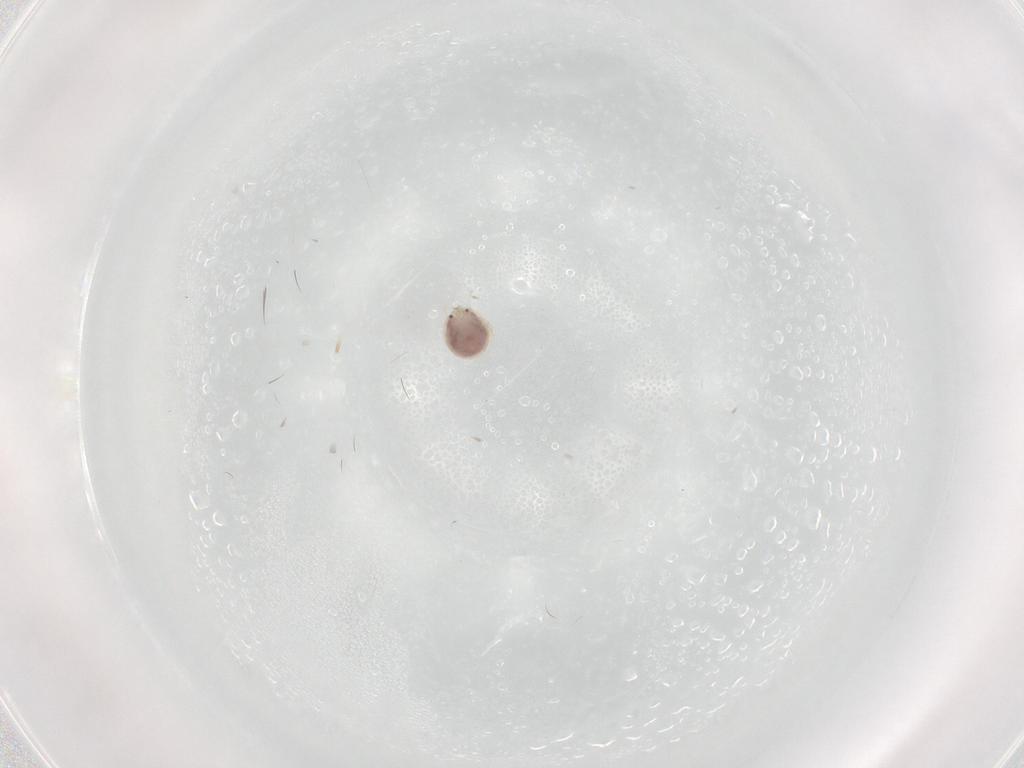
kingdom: Animalia
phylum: Arthropoda
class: Arachnida
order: Trombidiformes
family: Pionidae
